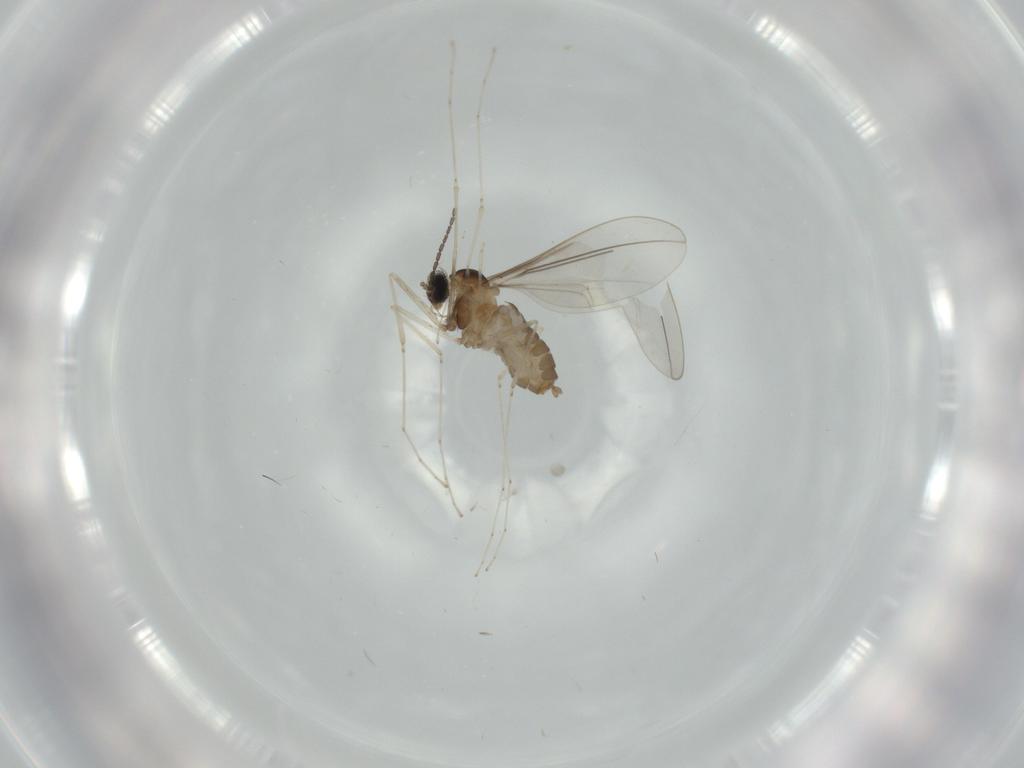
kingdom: Animalia
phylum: Arthropoda
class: Insecta
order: Diptera
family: Cecidomyiidae
